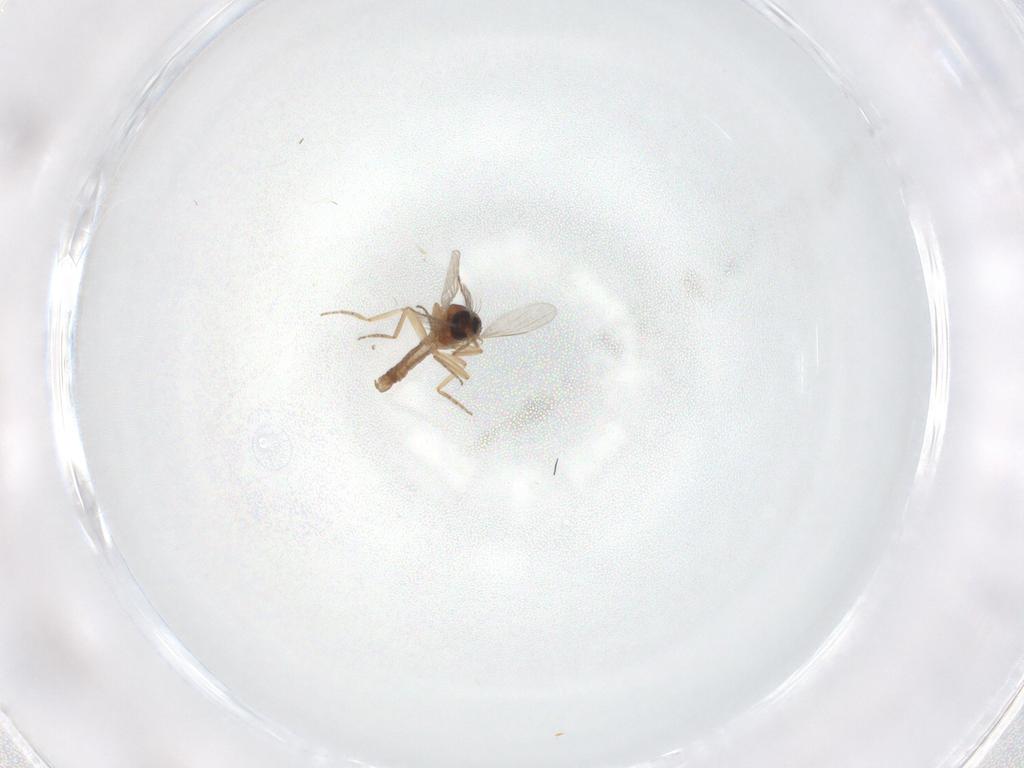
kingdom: Animalia
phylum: Arthropoda
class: Insecta
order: Diptera
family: Ceratopogonidae
